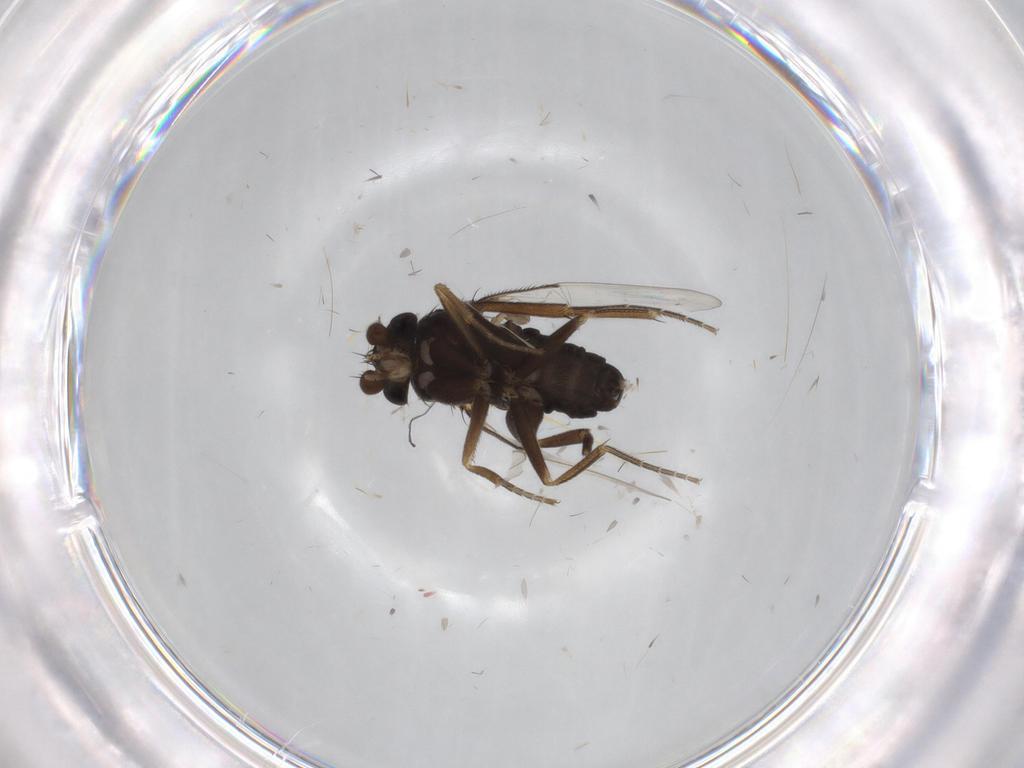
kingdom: Animalia
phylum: Arthropoda
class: Insecta
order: Diptera
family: Phoridae
